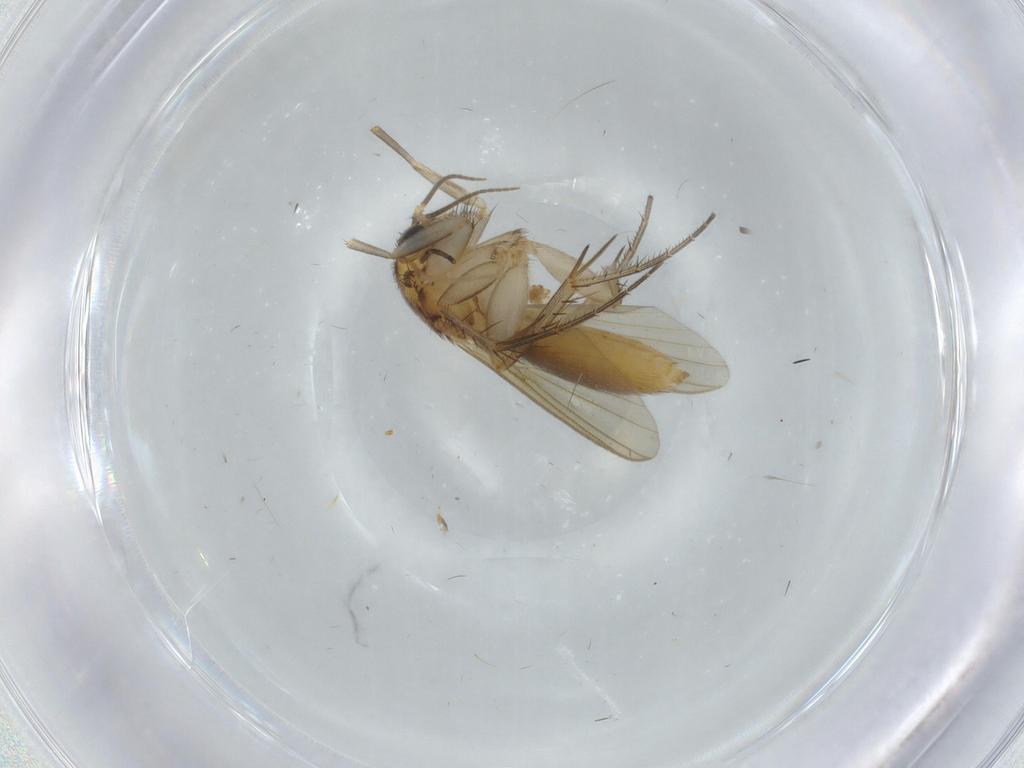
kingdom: Animalia
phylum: Arthropoda
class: Insecta
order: Diptera
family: Mycetophilidae
